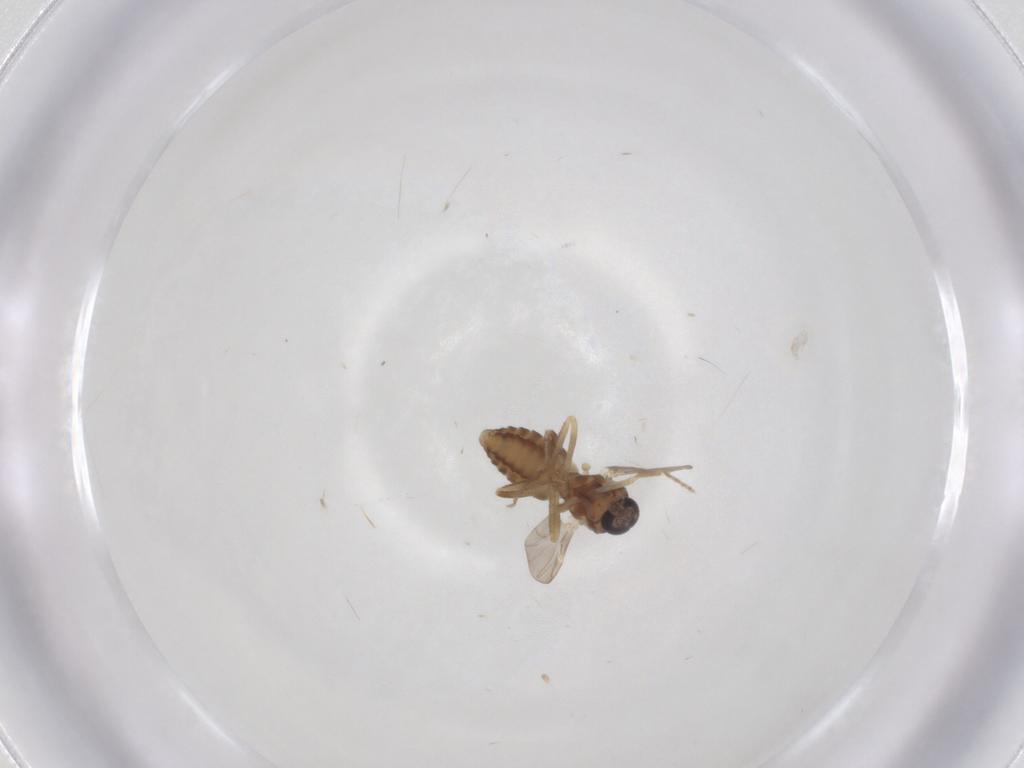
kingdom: Animalia
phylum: Arthropoda
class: Insecta
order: Diptera
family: Ceratopogonidae
